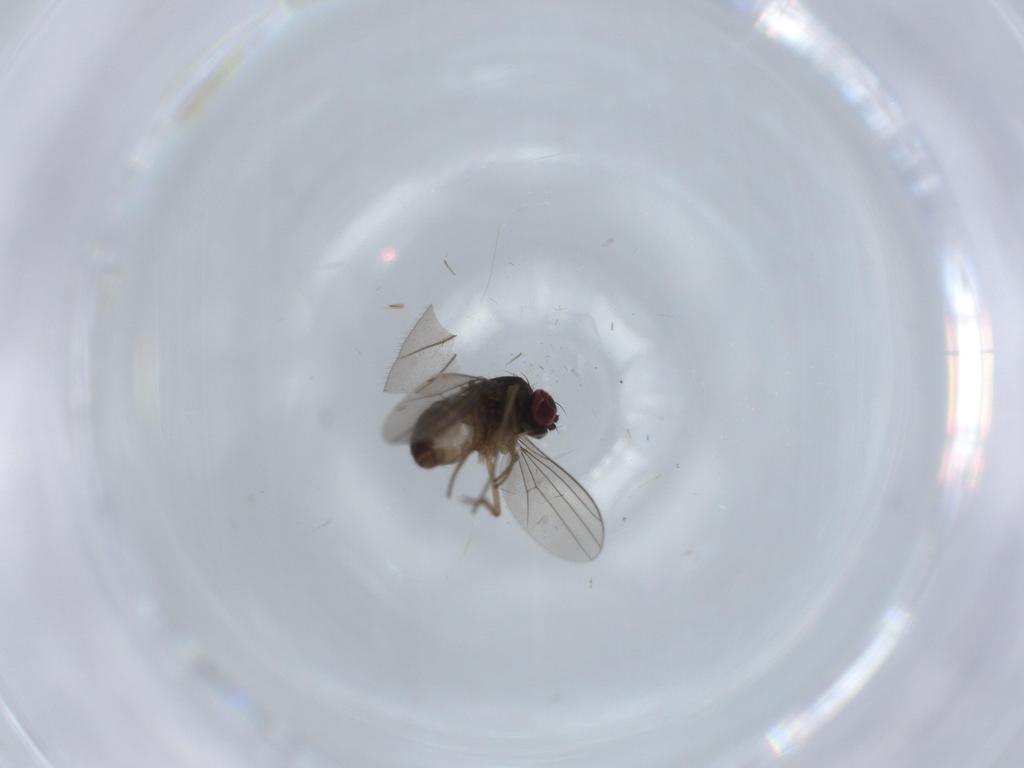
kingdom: Animalia
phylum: Arthropoda
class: Insecta
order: Diptera
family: Dolichopodidae
